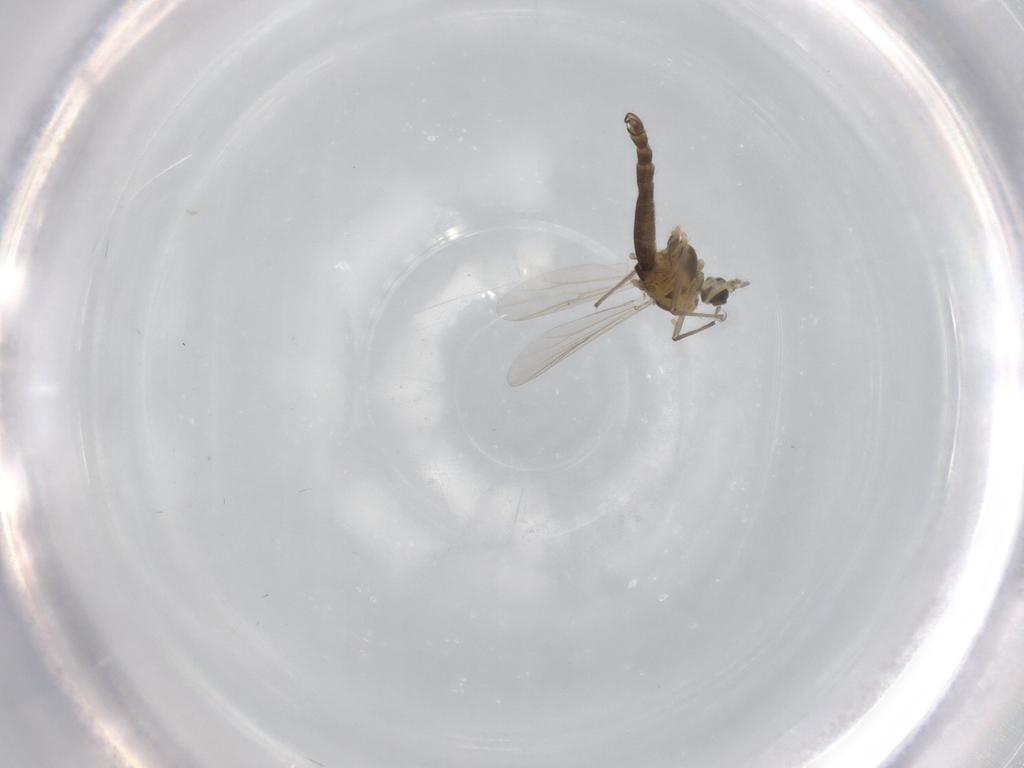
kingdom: Animalia
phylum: Arthropoda
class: Insecta
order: Diptera
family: Chironomidae
